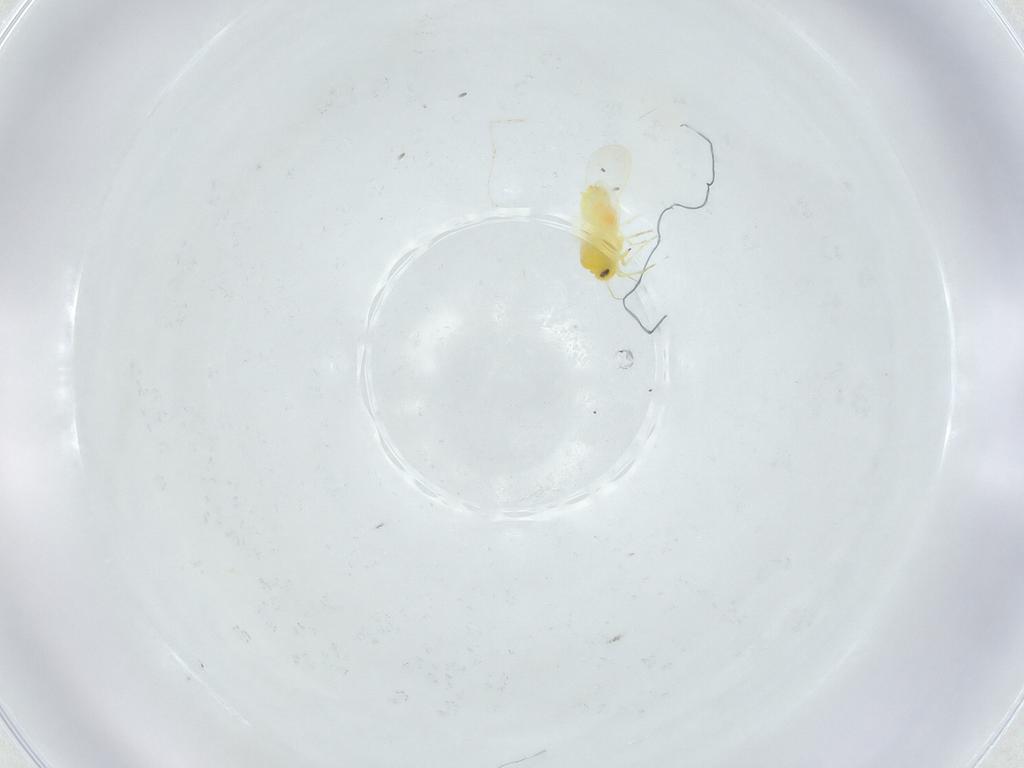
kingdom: Animalia
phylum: Arthropoda
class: Insecta
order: Hemiptera
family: Aleyrodidae
